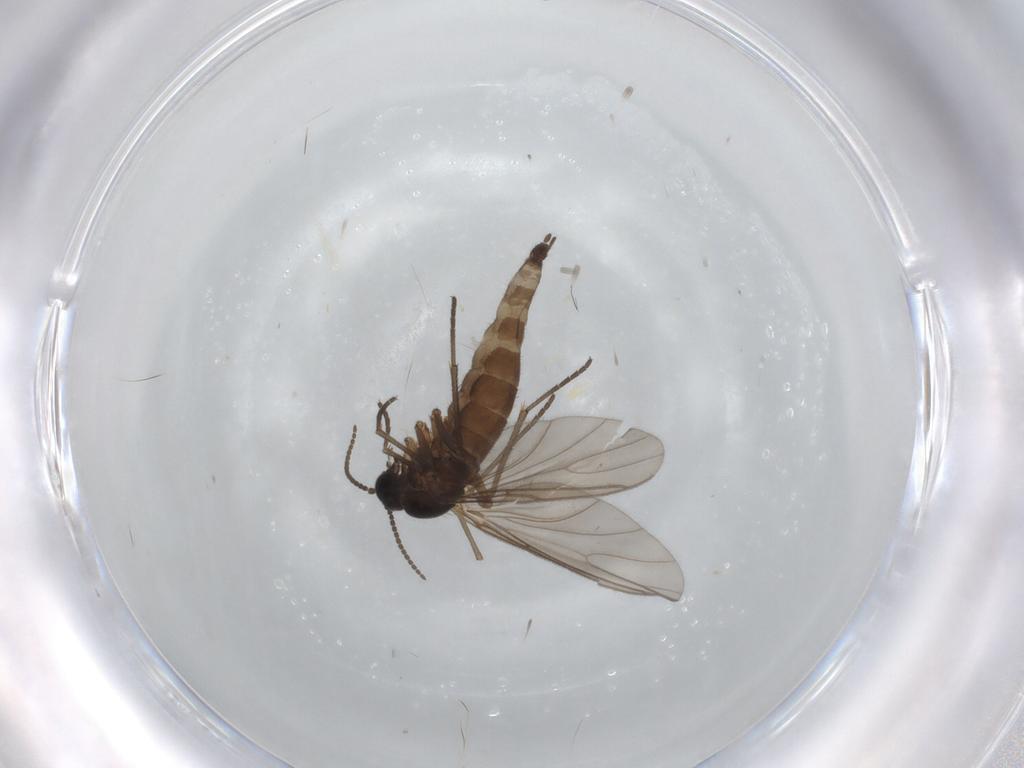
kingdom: Animalia
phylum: Arthropoda
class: Insecta
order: Diptera
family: Sciaridae
